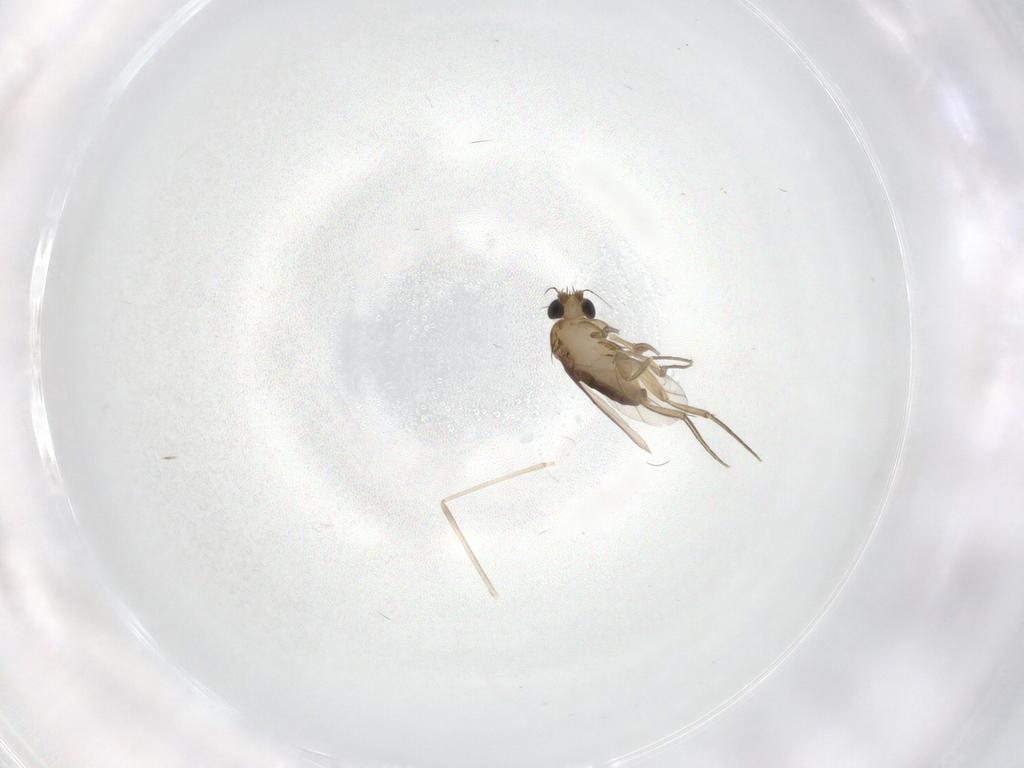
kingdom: Animalia
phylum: Arthropoda
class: Insecta
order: Diptera
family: Phoridae
